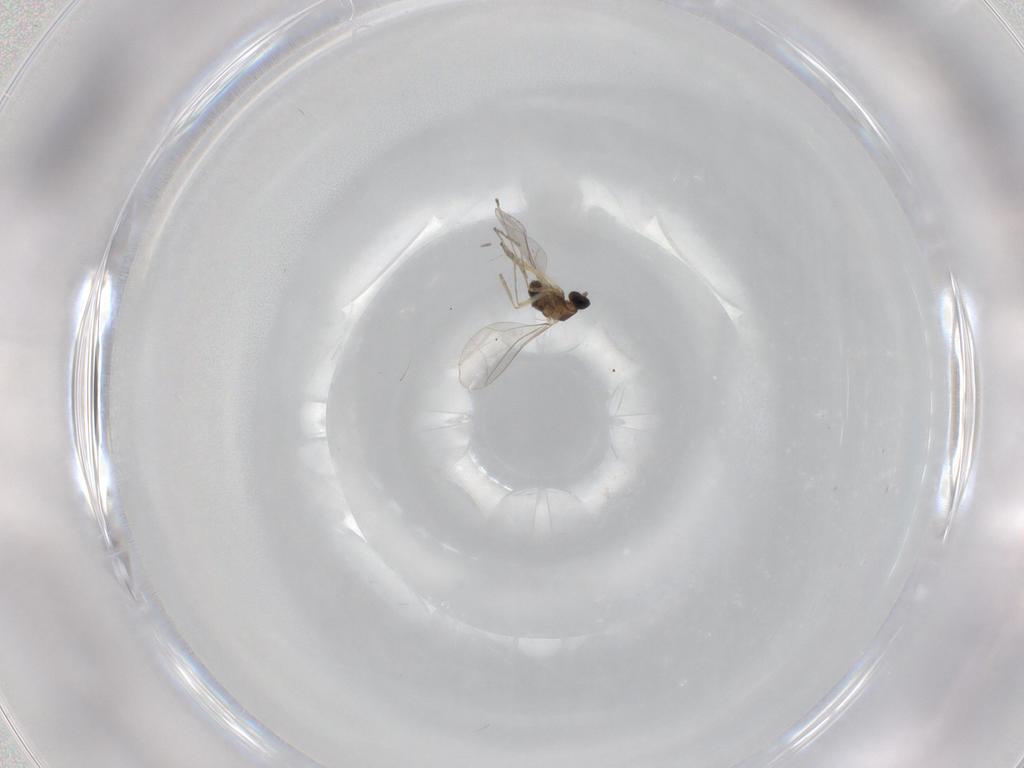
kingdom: Animalia
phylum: Arthropoda
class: Insecta
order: Diptera
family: Cecidomyiidae
